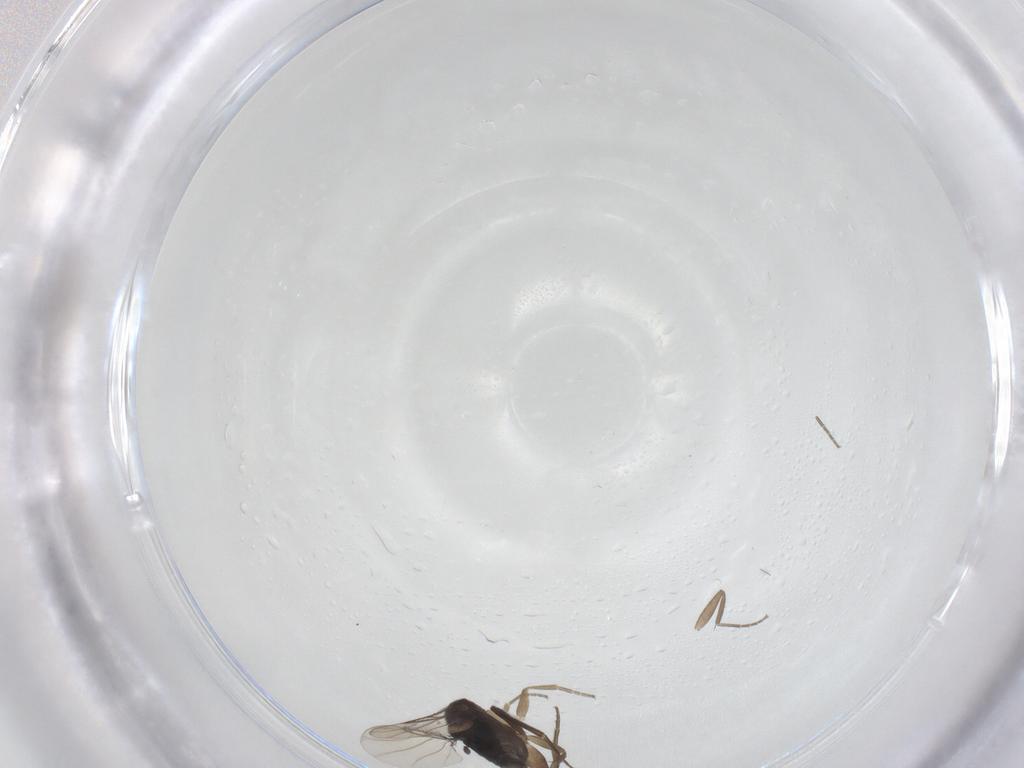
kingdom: Animalia
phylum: Arthropoda
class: Insecta
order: Diptera
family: Phoridae
